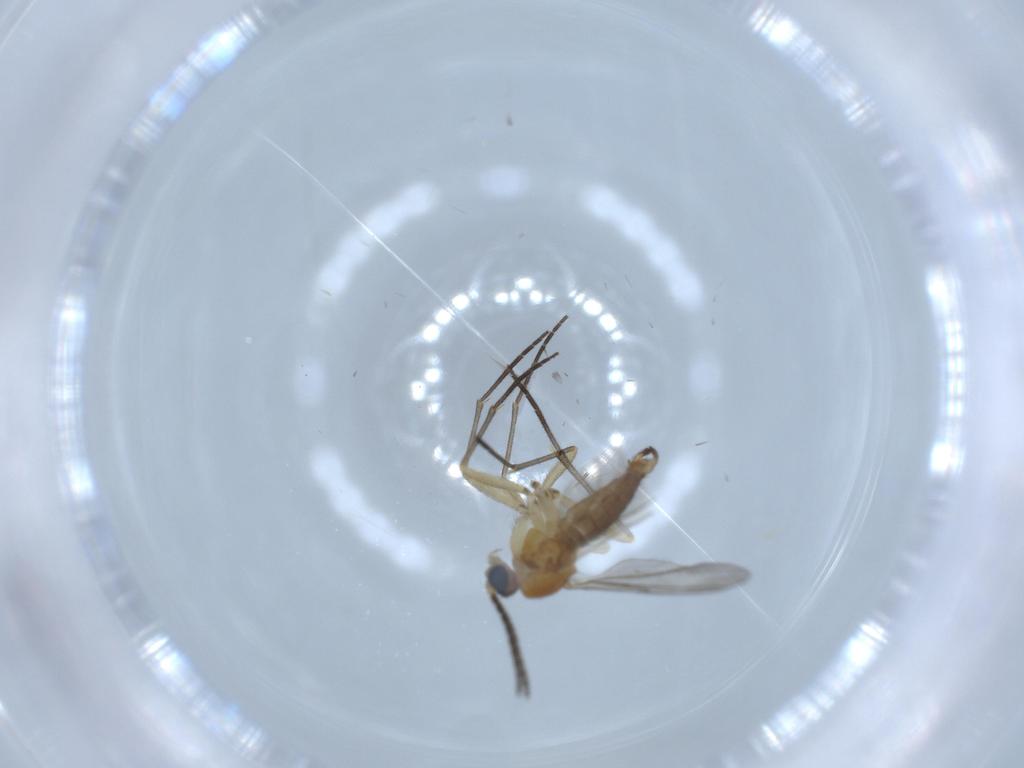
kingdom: Animalia
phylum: Arthropoda
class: Insecta
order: Diptera
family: Sciaridae
